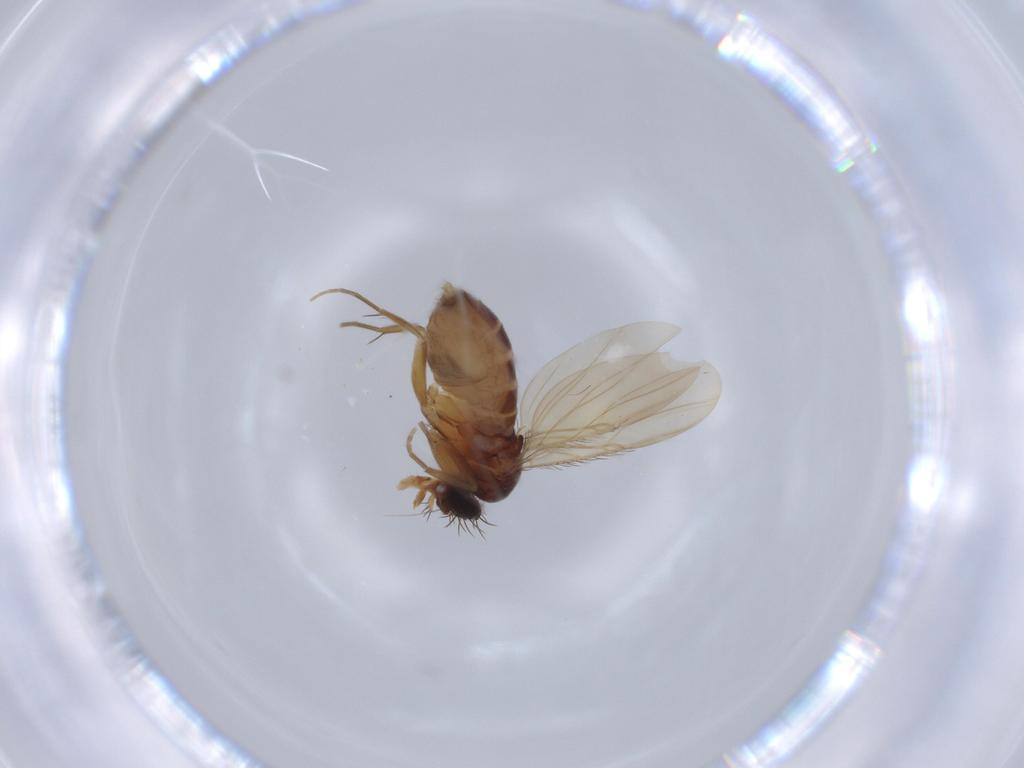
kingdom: Animalia
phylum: Arthropoda
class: Insecta
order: Diptera
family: Phoridae
